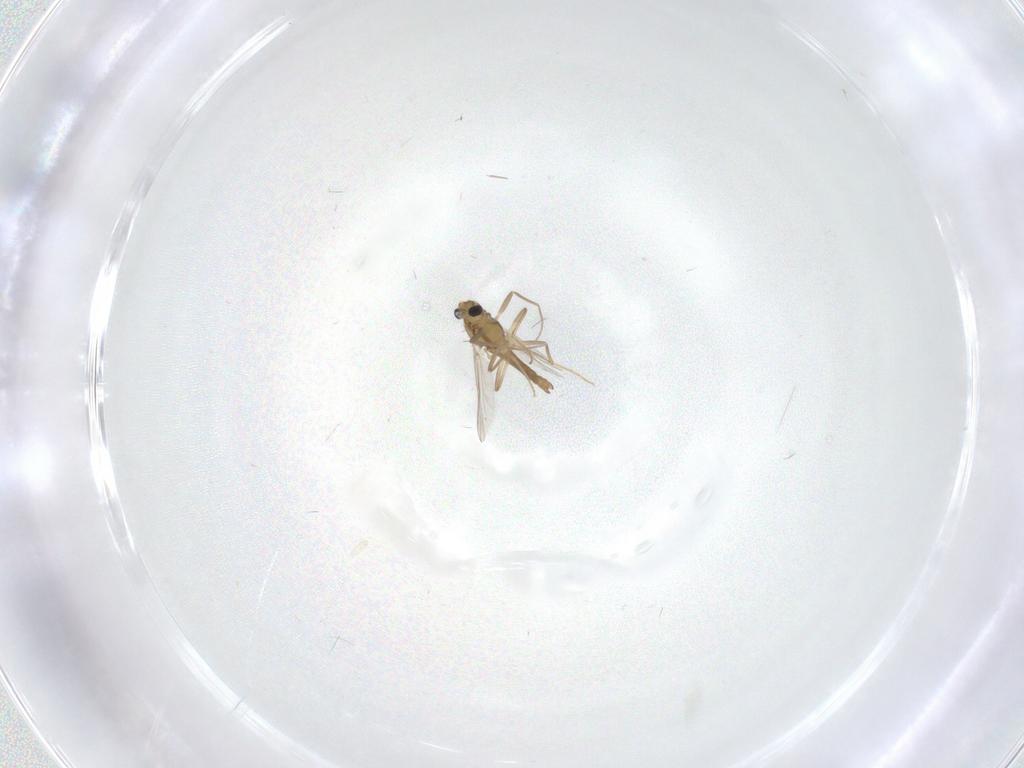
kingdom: Animalia
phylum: Arthropoda
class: Insecta
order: Diptera
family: Cecidomyiidae
